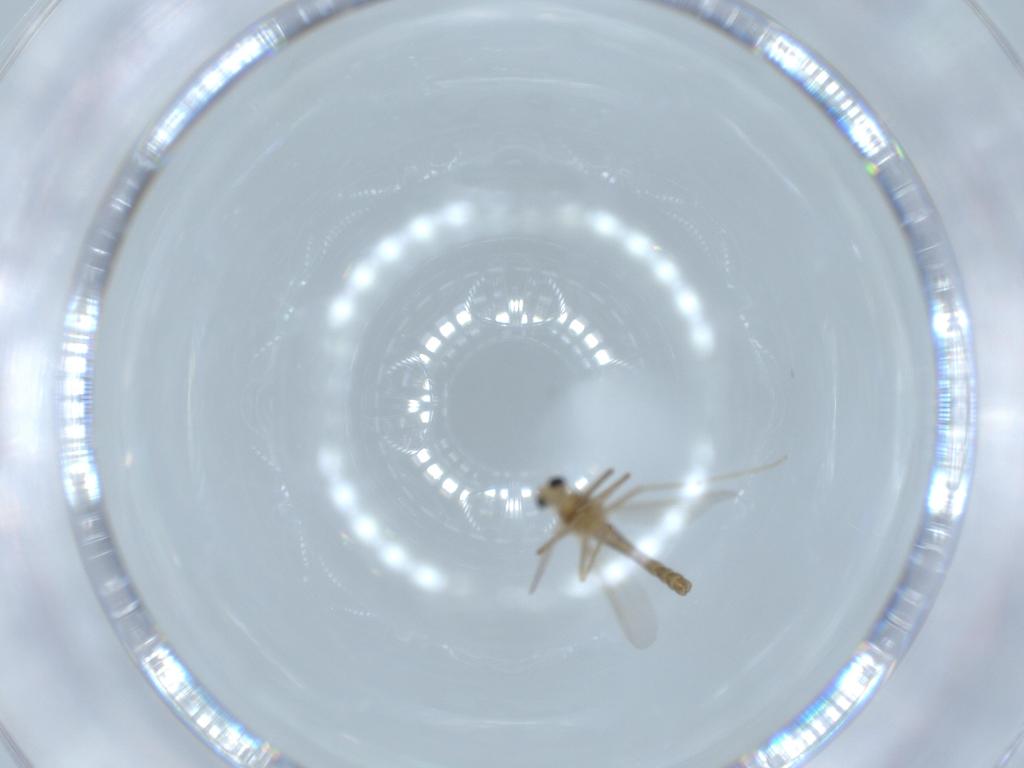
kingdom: Animalia
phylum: Arthropoda
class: Insecta
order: Diptera
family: Chironomidae
